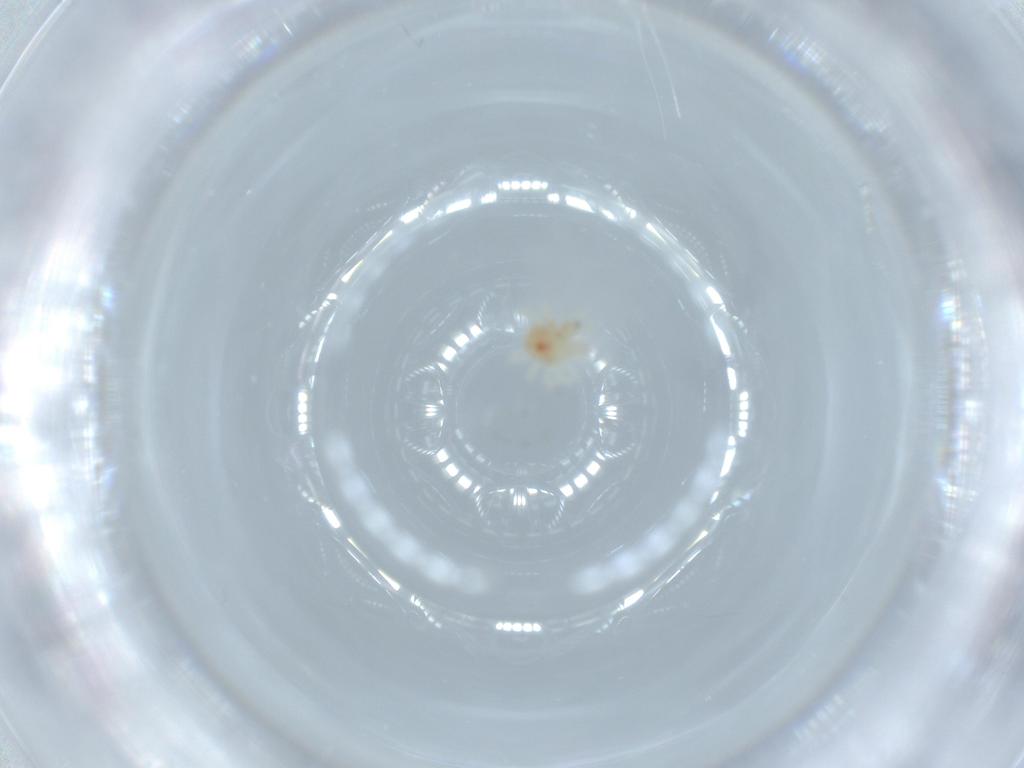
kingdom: Animalia
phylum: Arthropoda
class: Arachnida
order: Trombidiformes
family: Anystidae
